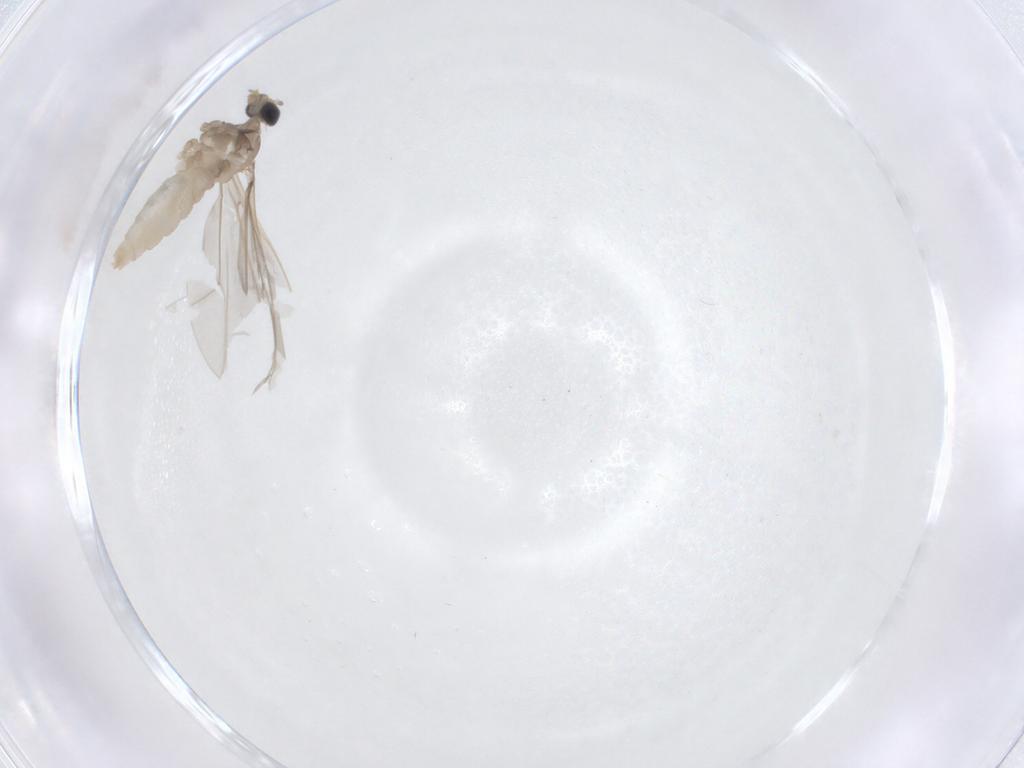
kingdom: Animalia
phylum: Arthropoda
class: Insecta
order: Diptera
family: Cecidomyiidae
